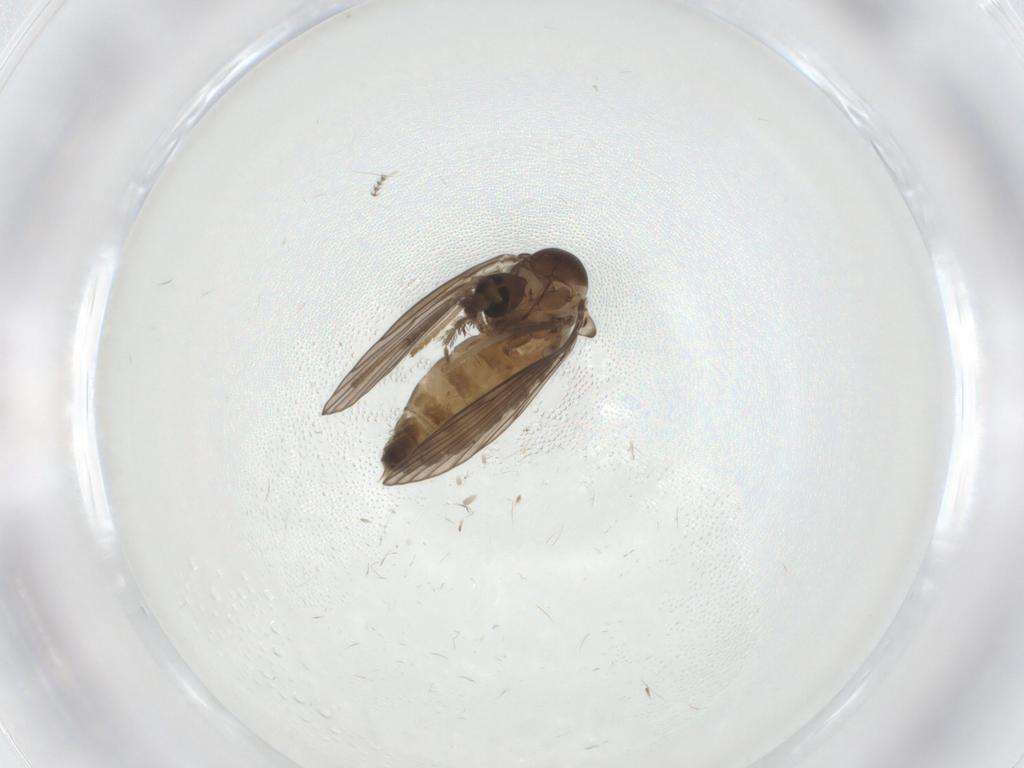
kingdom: Animalia
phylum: Arthropoda
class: Insecta
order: Diptera
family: Psychodidae
